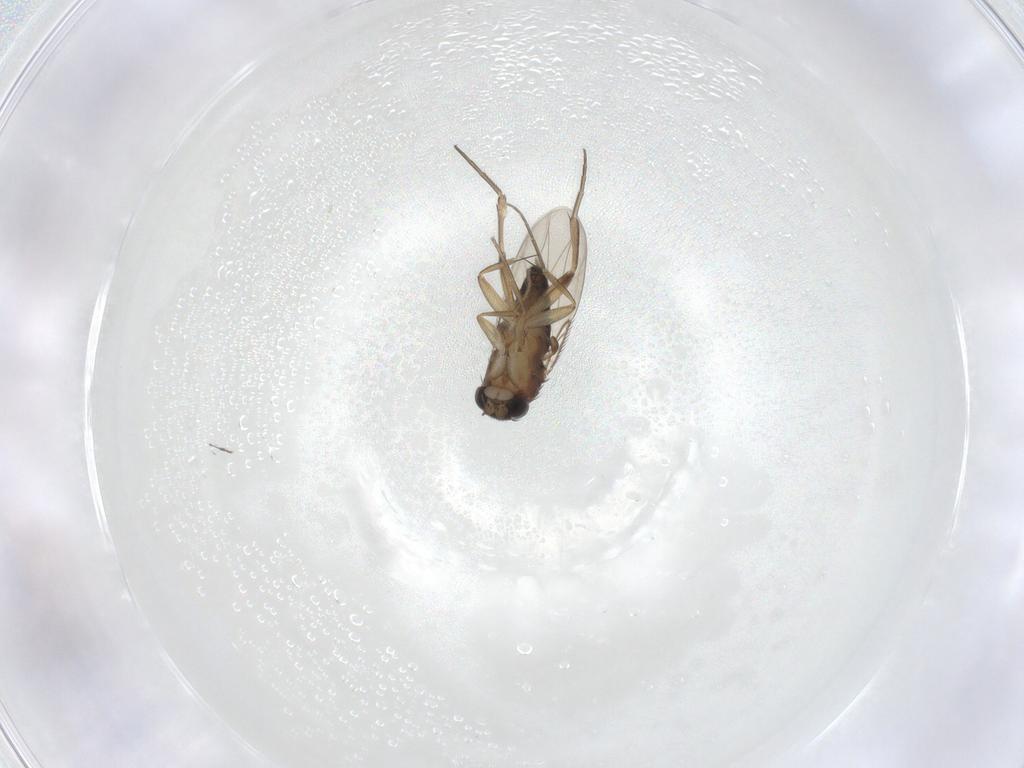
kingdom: Animalia
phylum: Arthropoda
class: Insecta
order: Diptera
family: Phoridae
